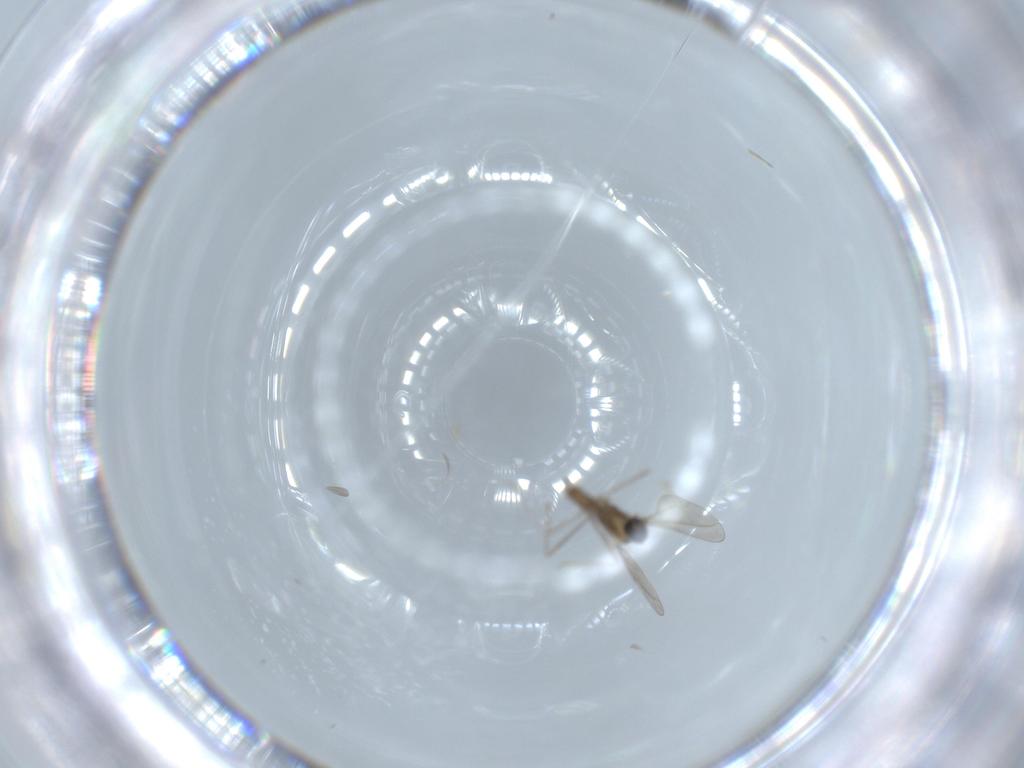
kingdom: Animalia
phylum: Arthropoda
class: Insecta
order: Diptera
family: Cecidomyiidae
